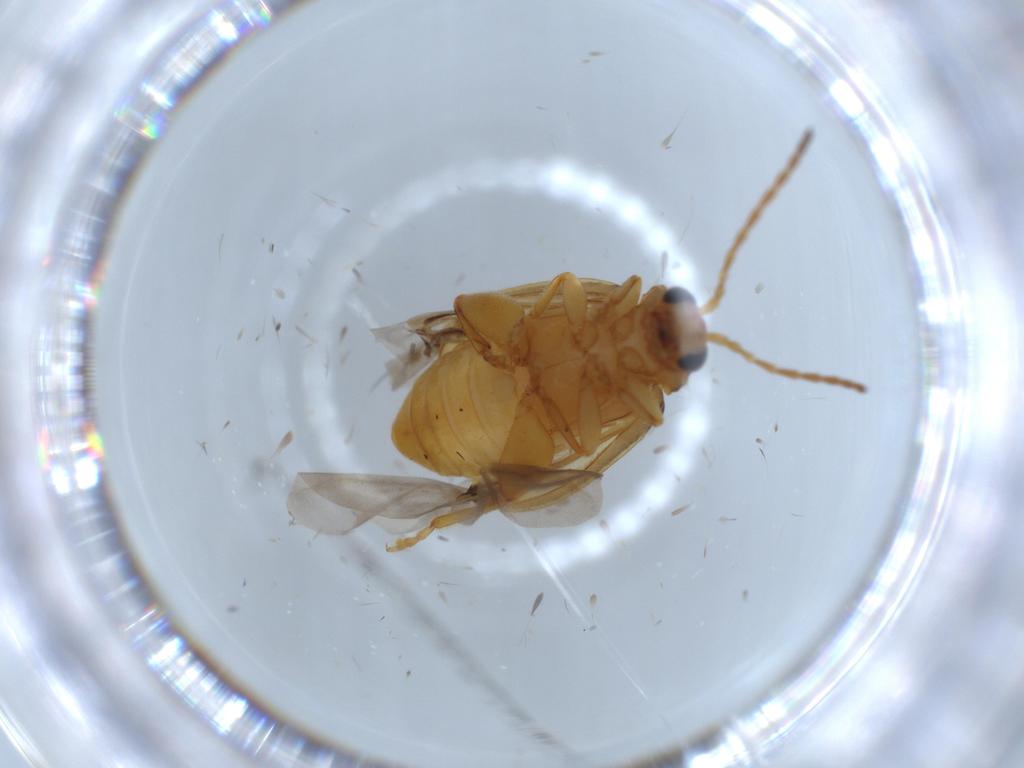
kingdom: Animalia
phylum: Arthropoda
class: Insecta
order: Coleoptera
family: Chrysomelidae
